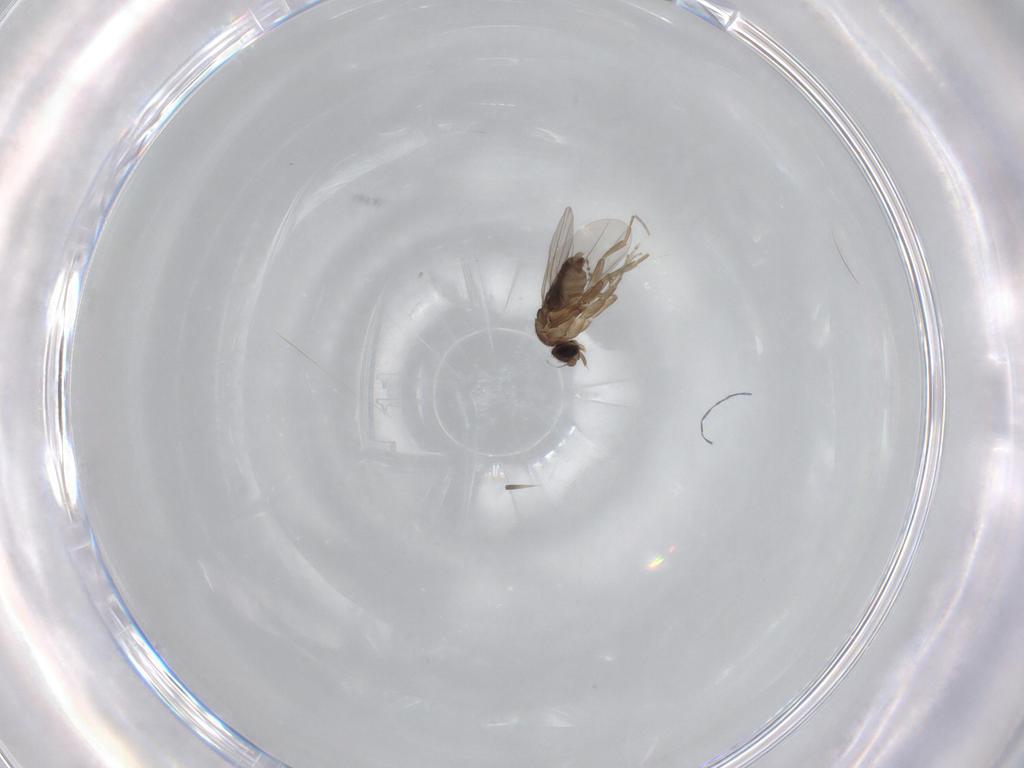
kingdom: Animalia
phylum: Arthropoda
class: Insecta
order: Diptera
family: Phoridae
